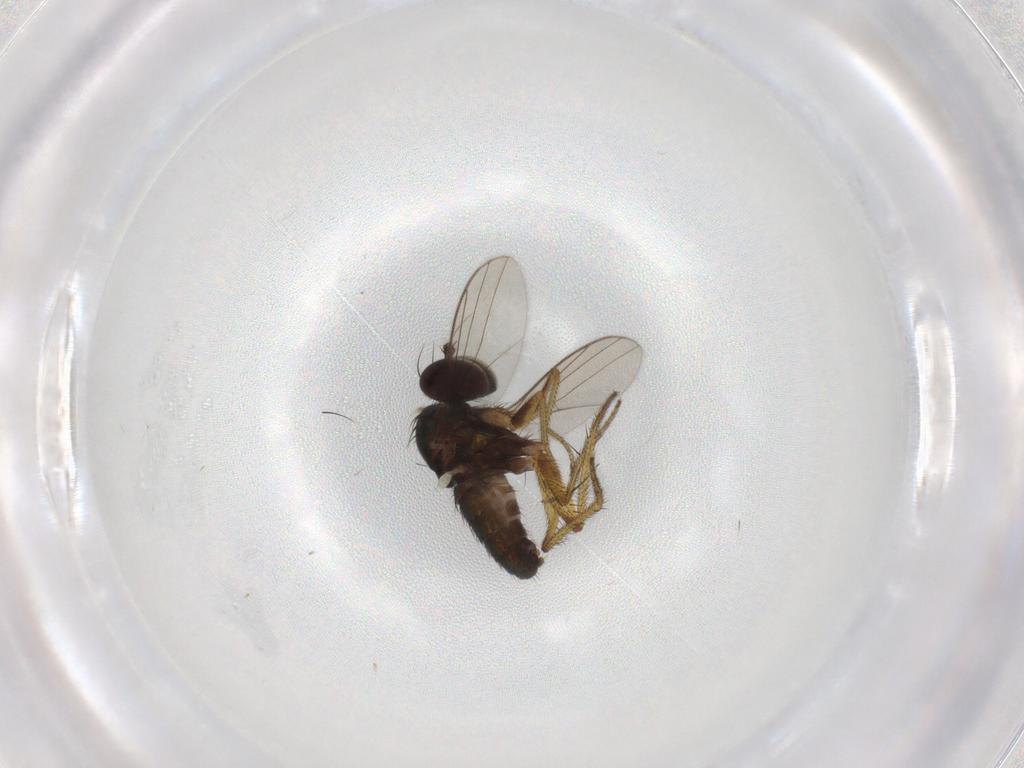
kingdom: Animalia
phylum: Arthropoda
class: Insecta
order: Diptera
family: Dolichopodidae
